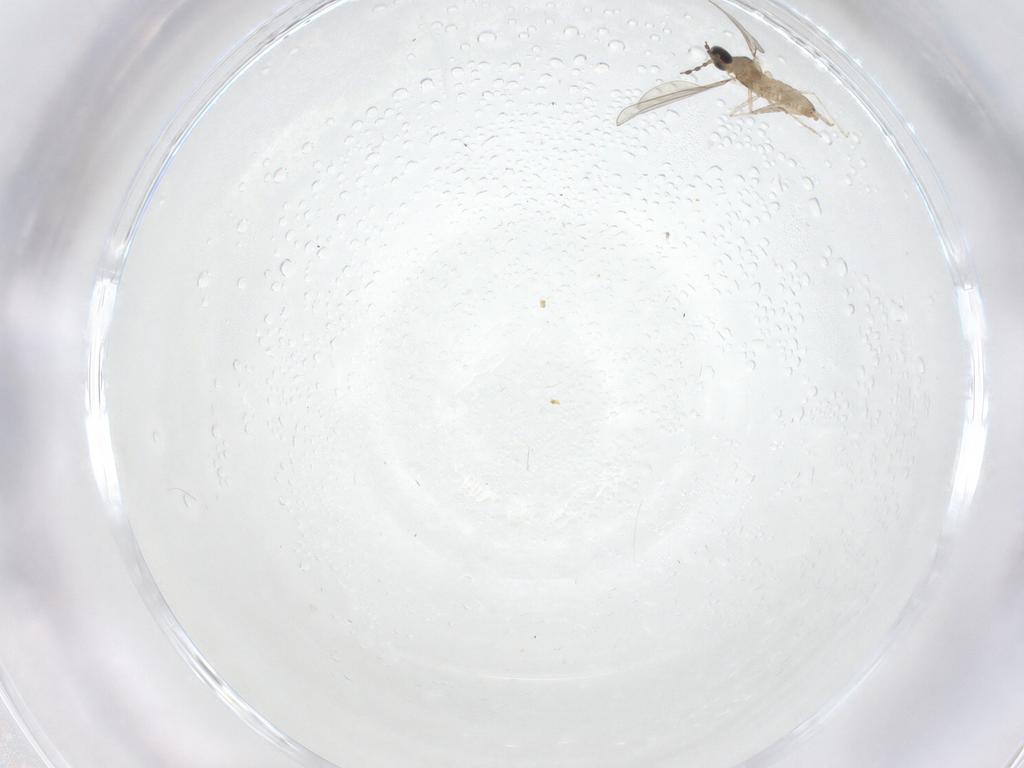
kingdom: Animalia
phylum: Arthropoda
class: Insecta
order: Diptera
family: Cecidomyiidae
